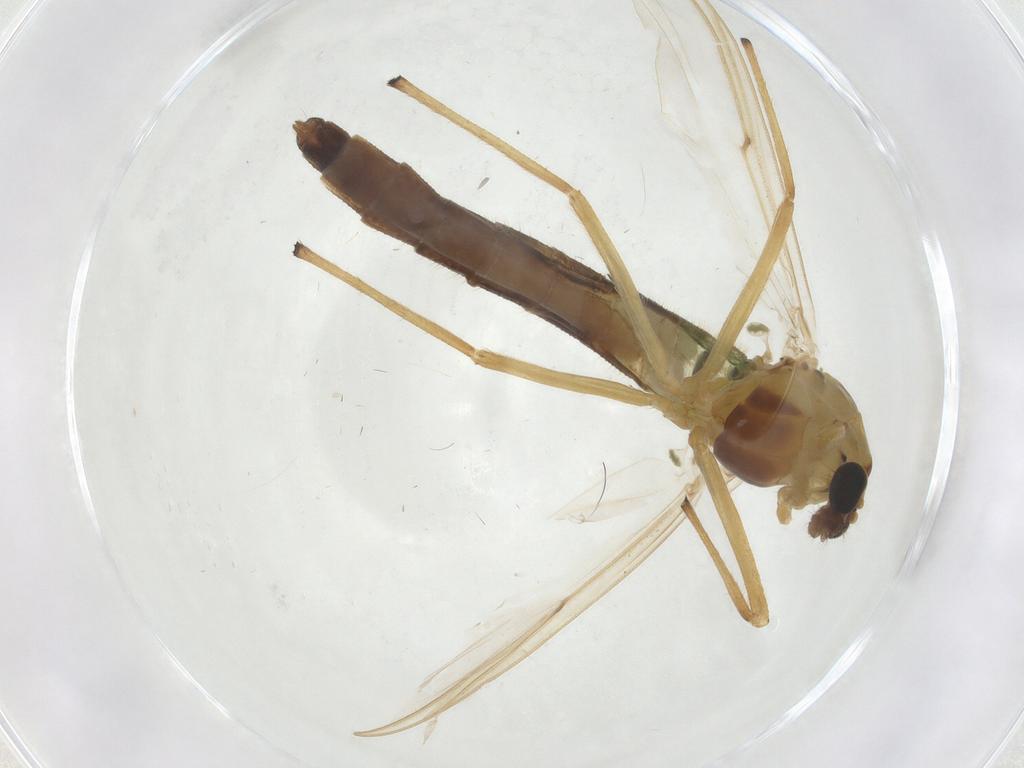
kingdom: Animalia
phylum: Arthropoda
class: Insecta
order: Diptera
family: Chironomidae
